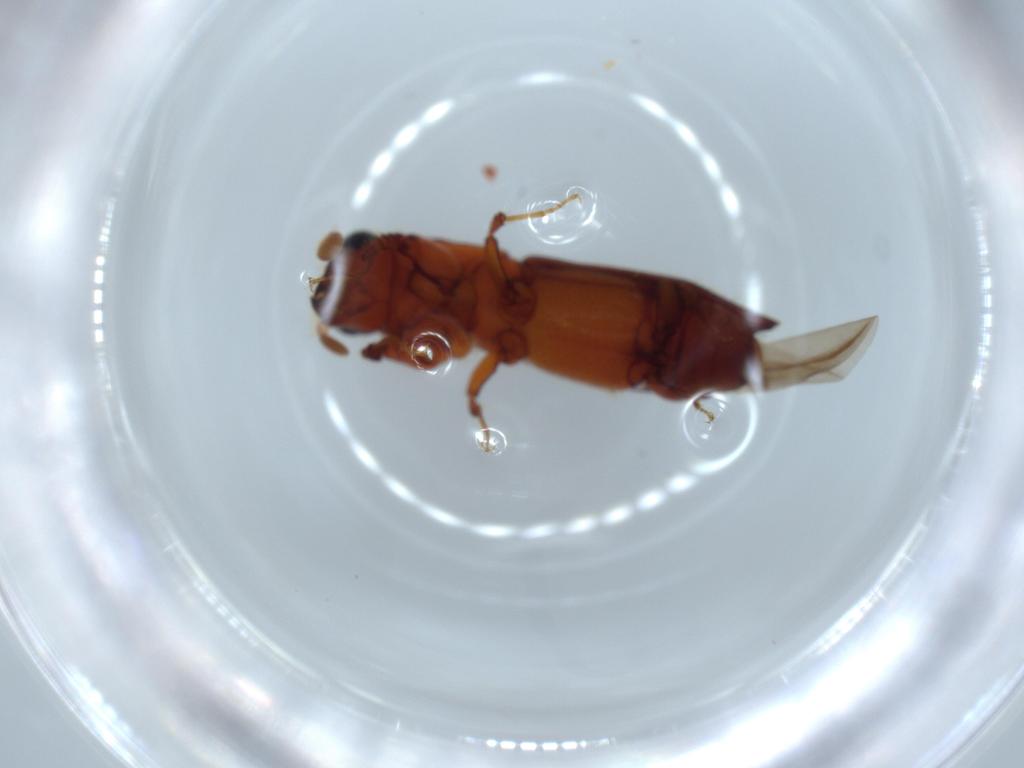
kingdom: Animalia
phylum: Arthropoda
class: Insecta
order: Coleoptera
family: Curculionidae
